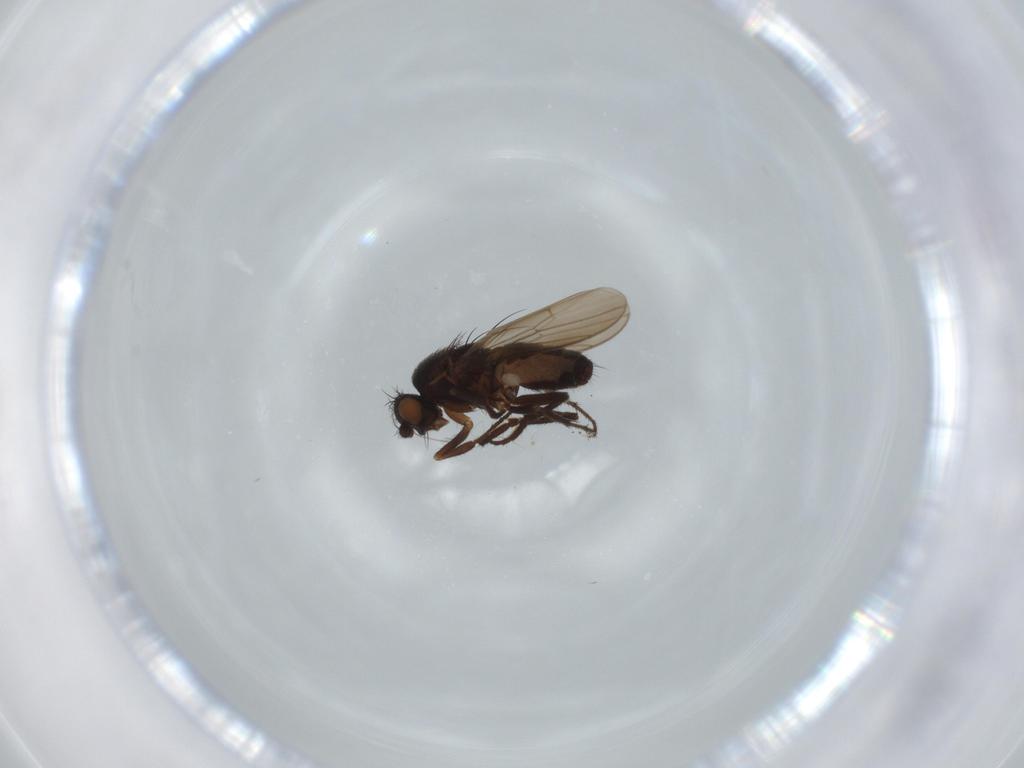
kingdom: Animalia
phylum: Arthropoda
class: Insecta
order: Diptera
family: Sphaeroceridae
